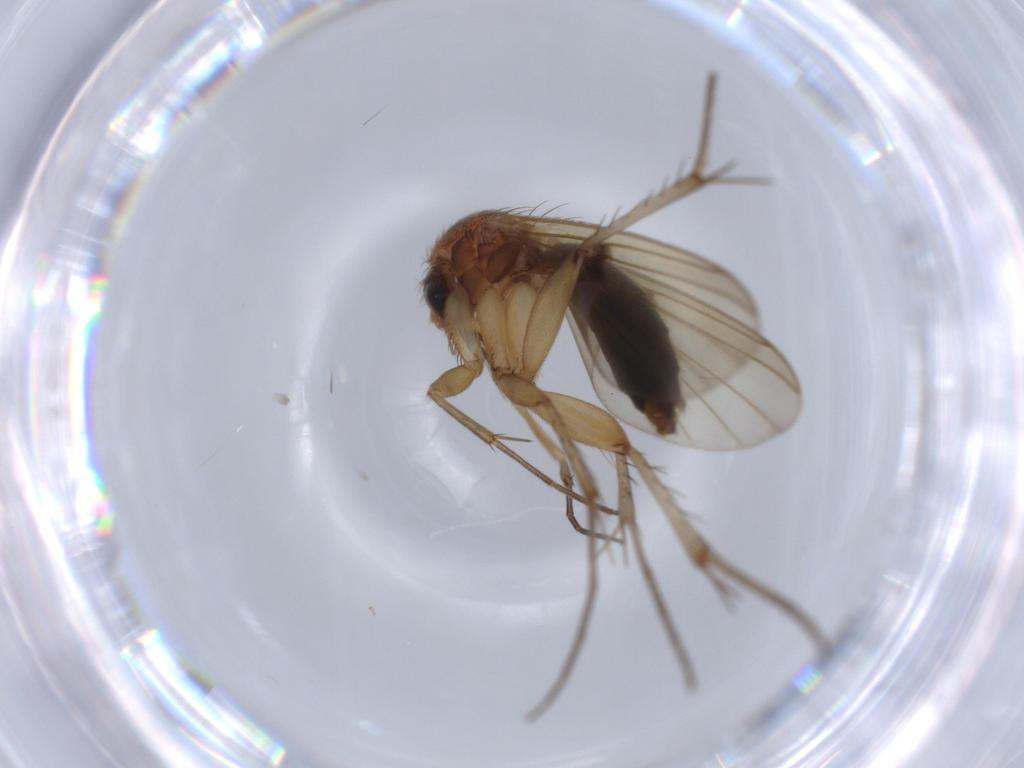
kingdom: Animalia
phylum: Arthropoda
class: Insecta
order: Diptera
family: Mycetophilidae
